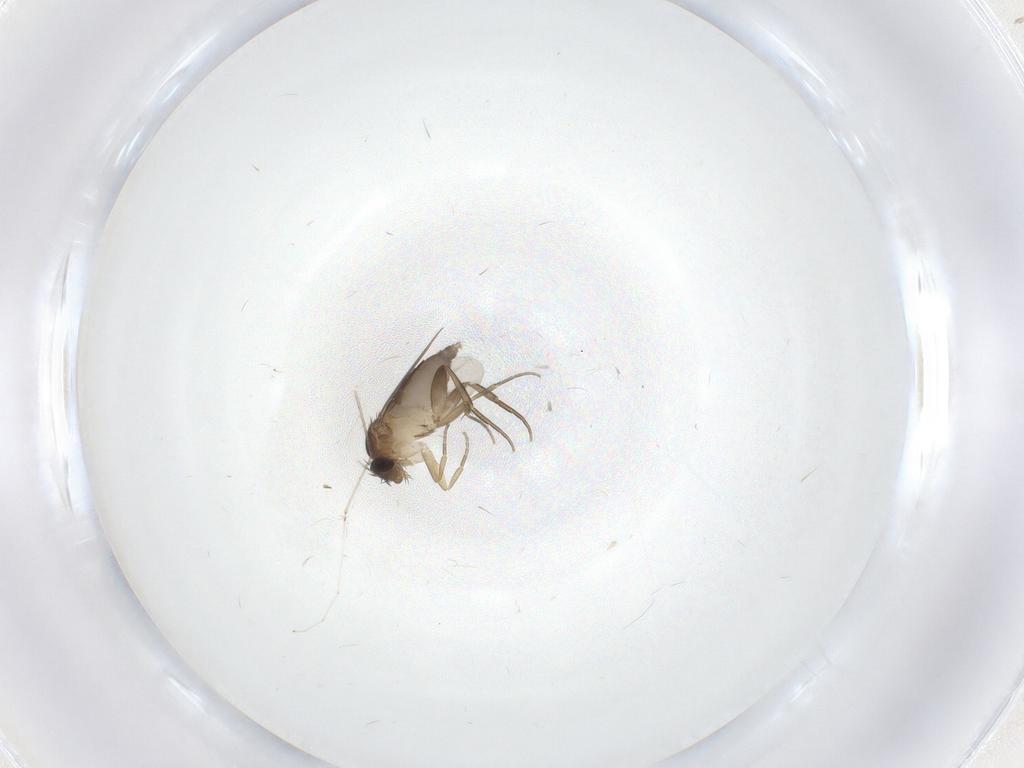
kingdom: Animalia
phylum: Arthropoda
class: Insecta
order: Diptera
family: Phoridae
